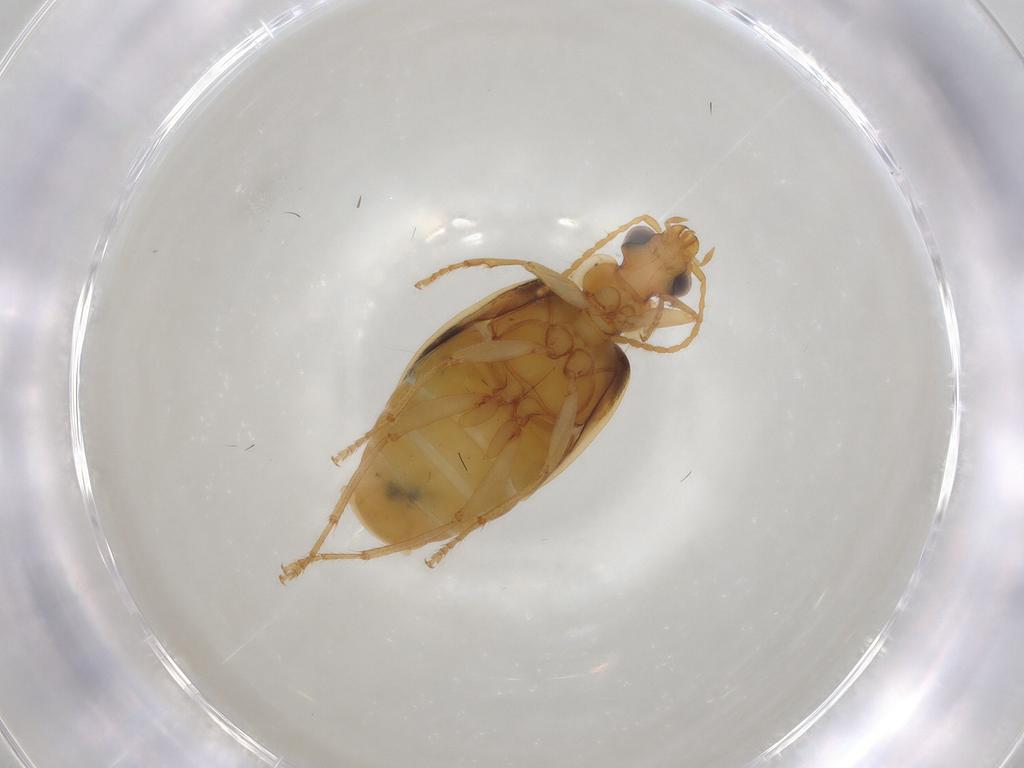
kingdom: Animalia
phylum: Arthropoda
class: Insecta
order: Coleoptera
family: Carabidae
